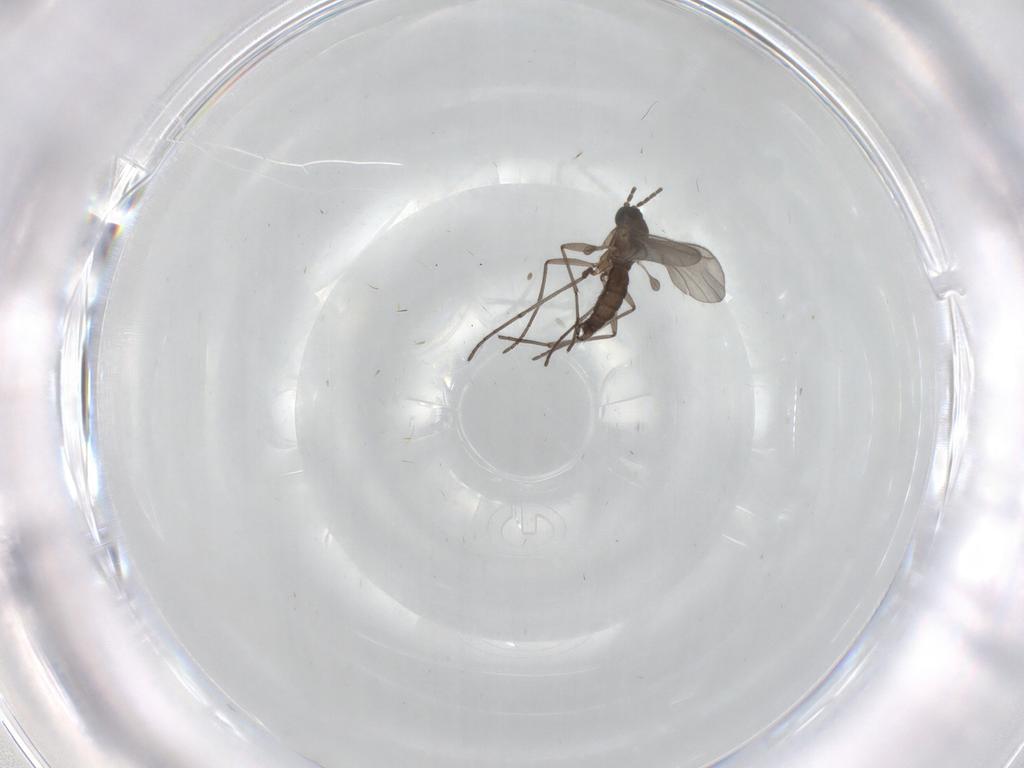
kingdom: Animalia
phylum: Arthropoda
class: Insecta
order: Diptera
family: Sciaridae
